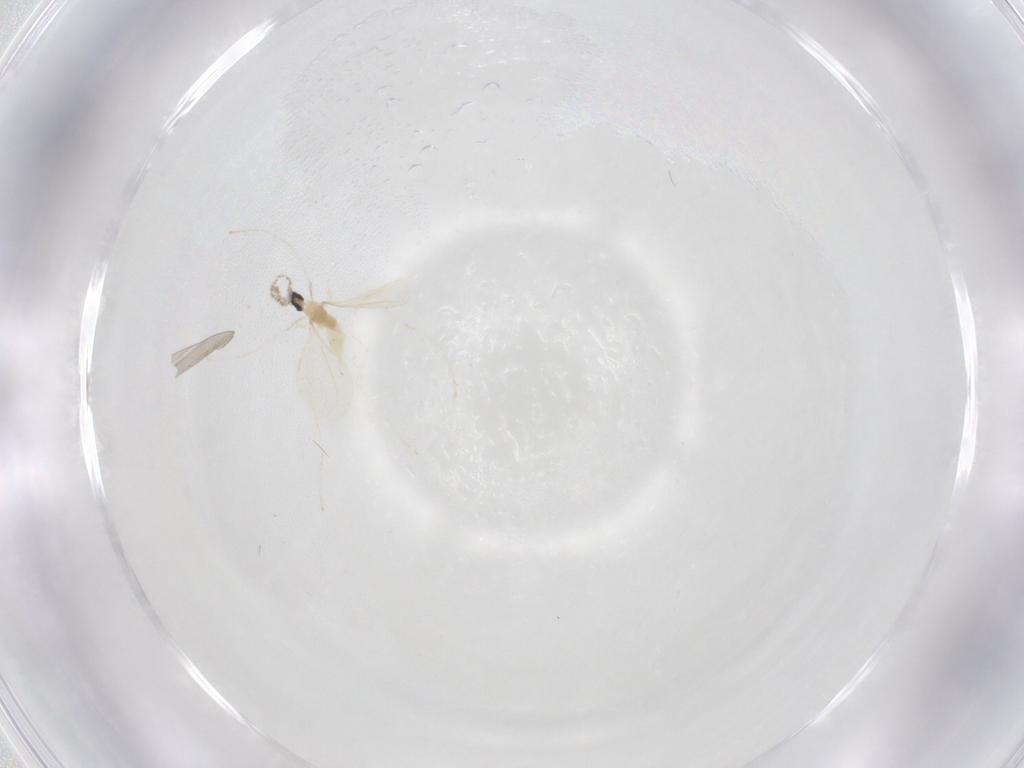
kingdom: Animalia
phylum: Arthropoda
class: Insecta
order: Diptera
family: Cecidomyiidae
